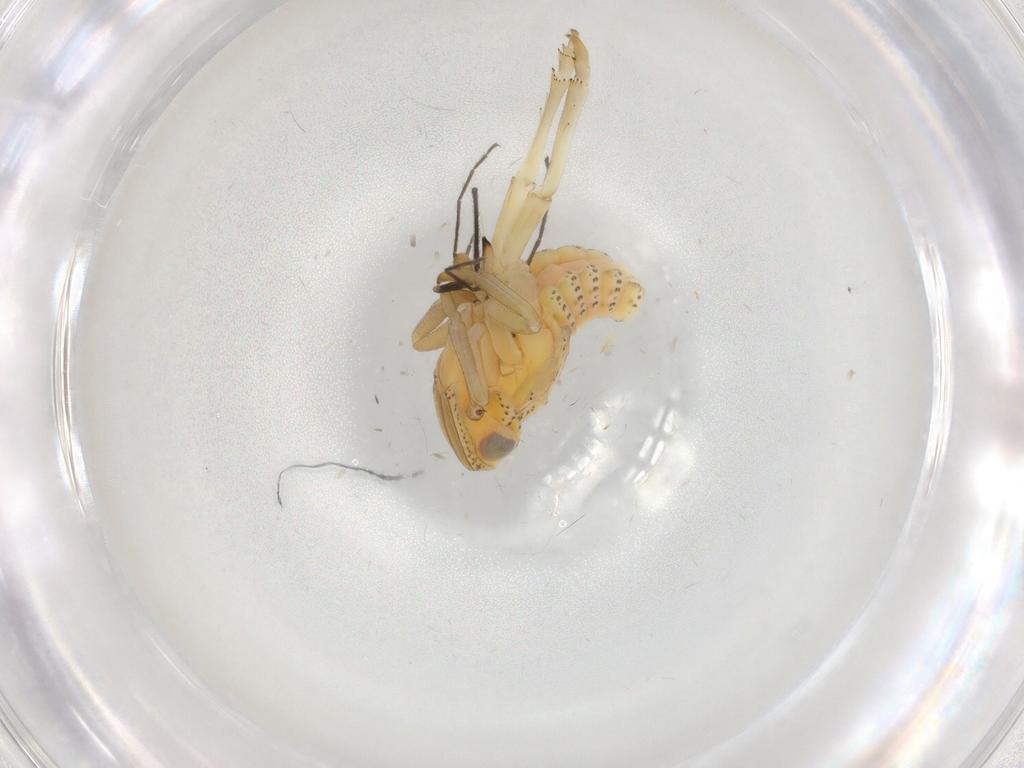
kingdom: Animalia
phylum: Arthropoda
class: Insecta
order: Hemiptera
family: Tropiduchidae
